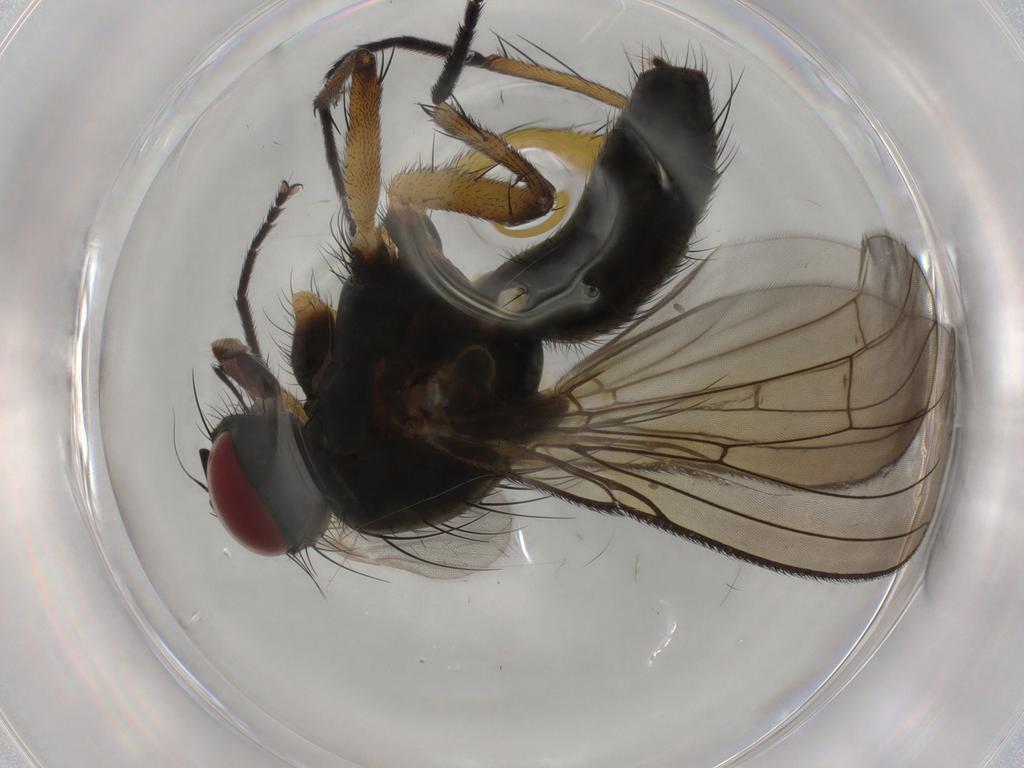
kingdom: Animalia
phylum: Arthropoda
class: Insecta
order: Diptera
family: Muscidae
